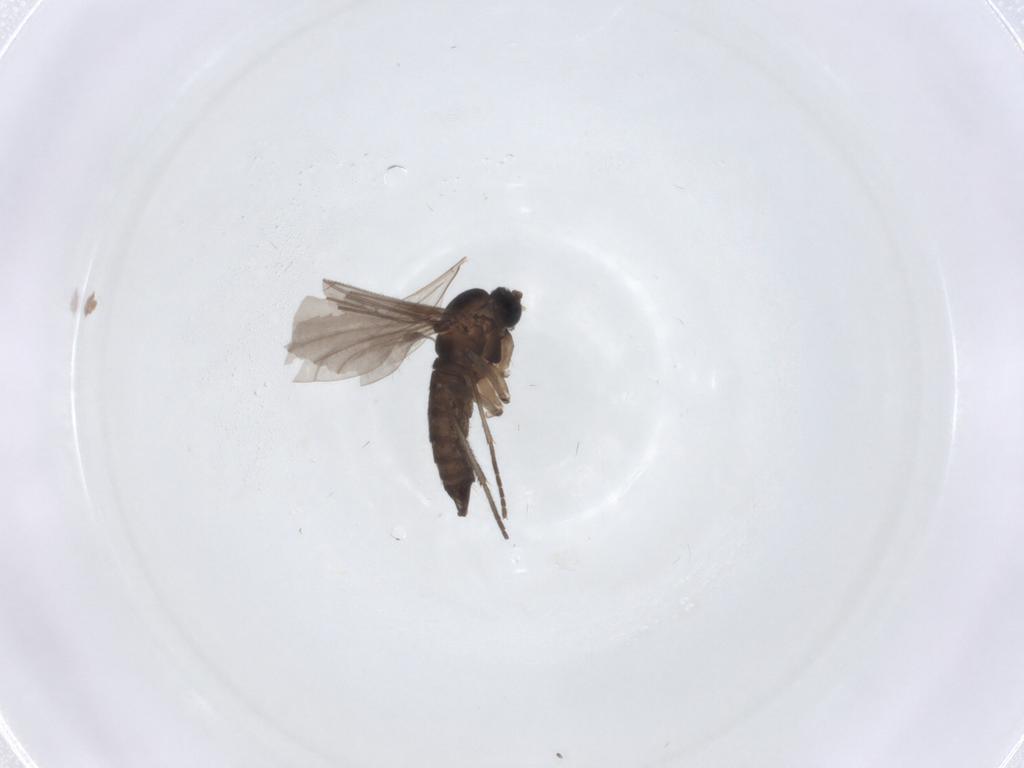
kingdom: Animalia
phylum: Arthropoda
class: Insecta
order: Diptera
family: Cecidomyiidae
